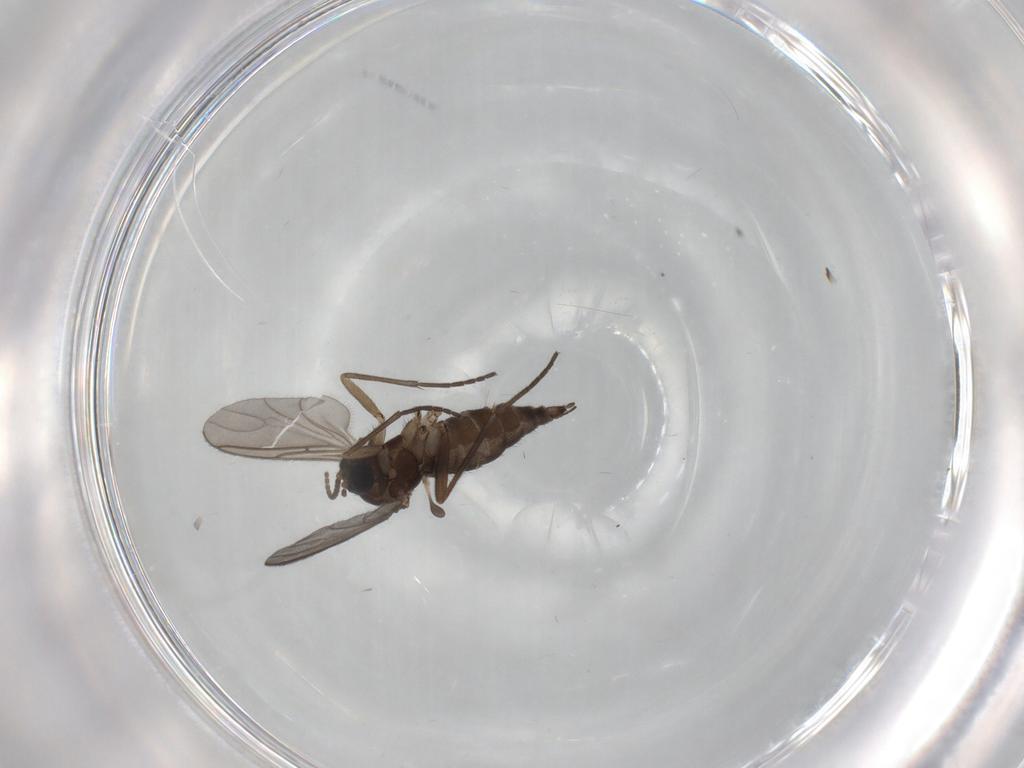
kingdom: Animalia
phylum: Arthropoda
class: Insecta
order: Diptera
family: Sciaridae
